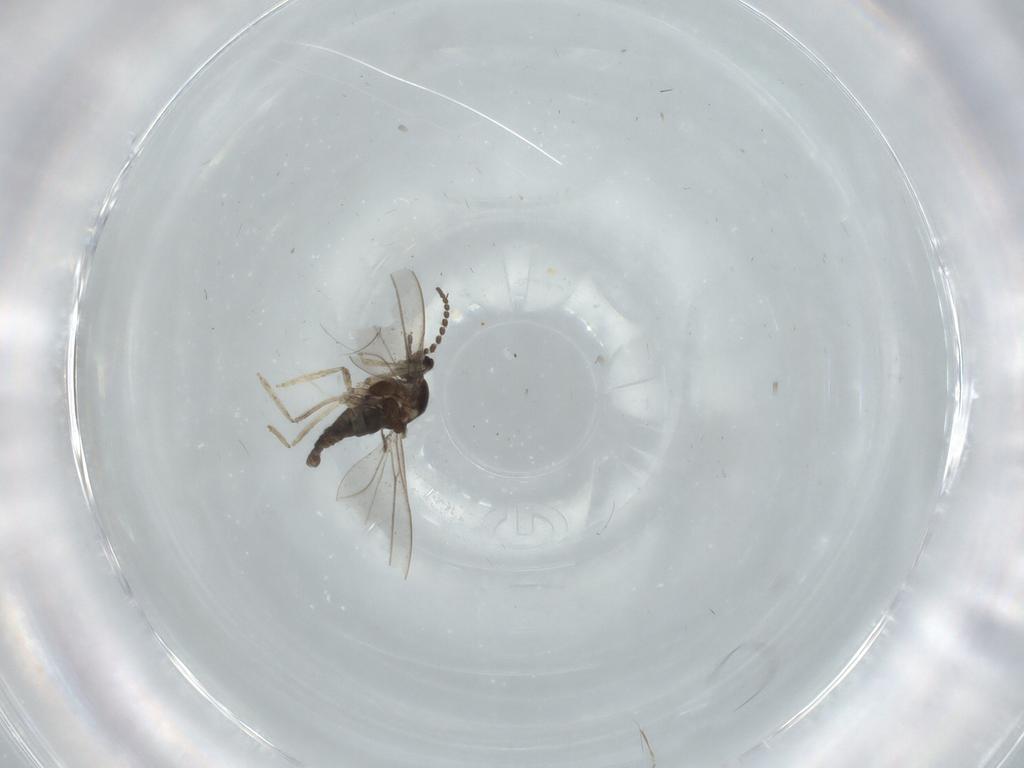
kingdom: Animalia
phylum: Arthropoda
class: Insecta
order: Diptera
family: Cecidomyiidae
